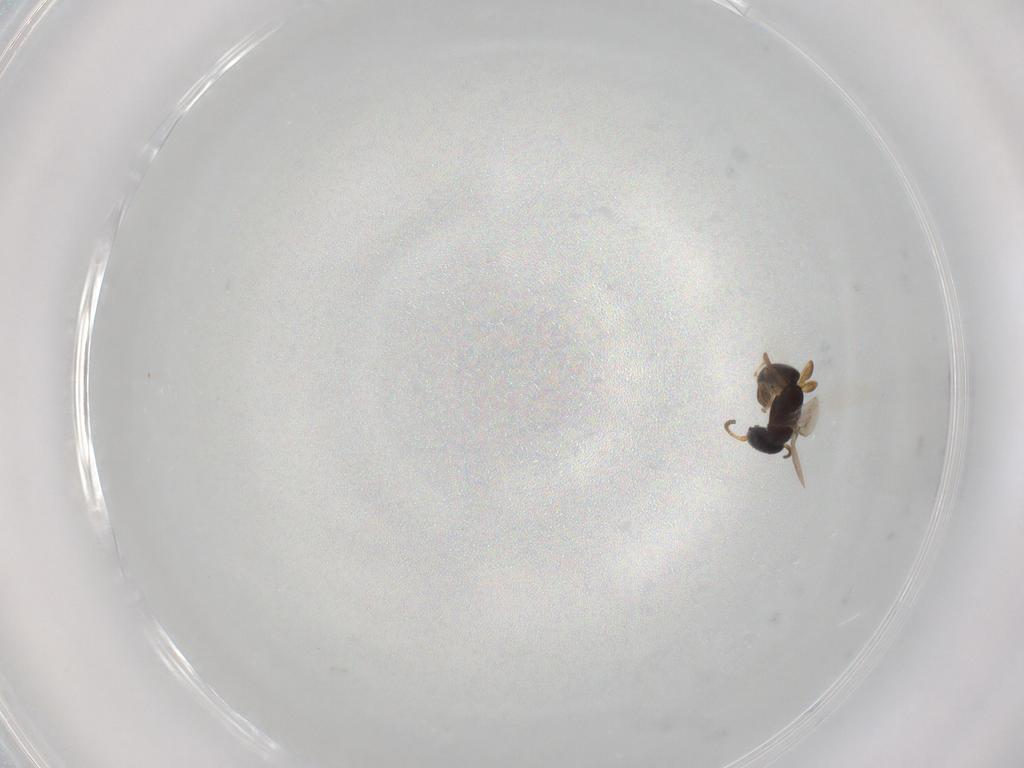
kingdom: Animalia
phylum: Arthropoda
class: Insecta
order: Hymenoptera
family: Bethylidae
